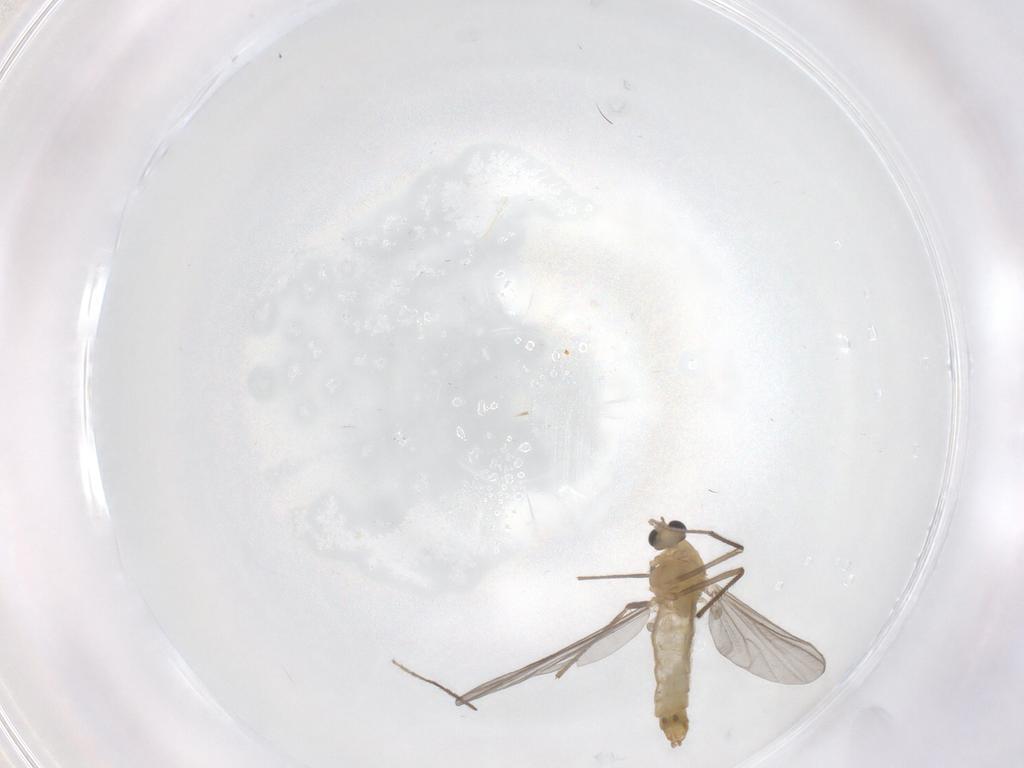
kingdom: Animalia
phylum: Arthropoda
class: Insecta
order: Diptera
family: Chironomidae
